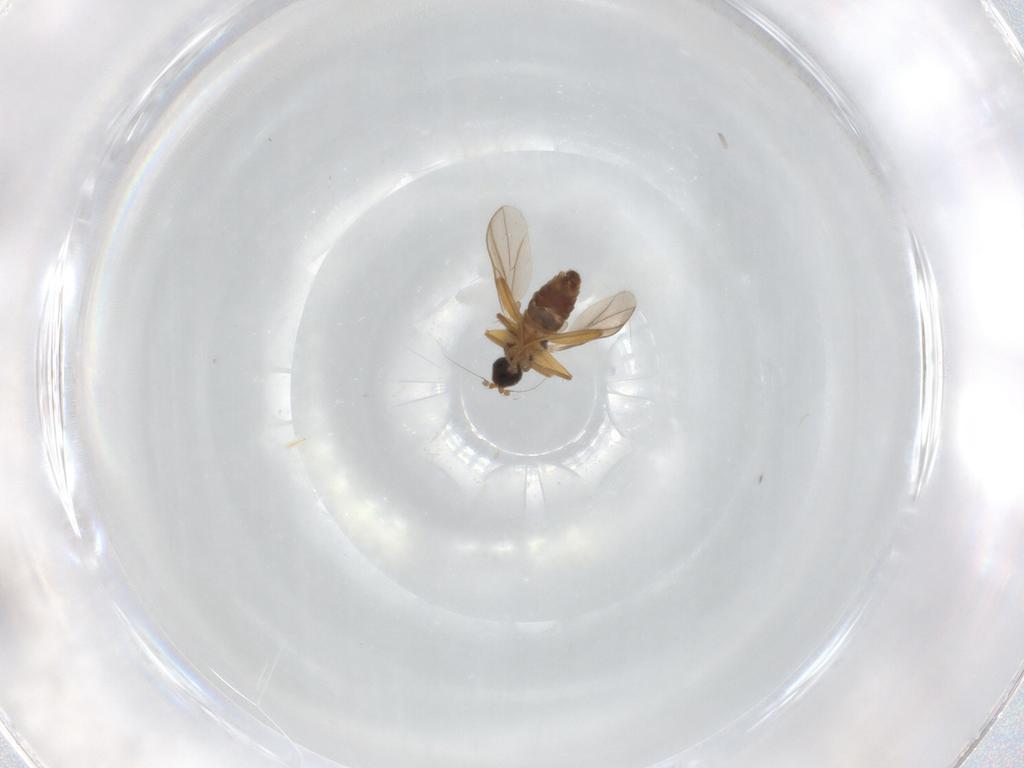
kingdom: Animalia
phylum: Arthropoda
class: Insecta
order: Diptera
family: Hybotidae
